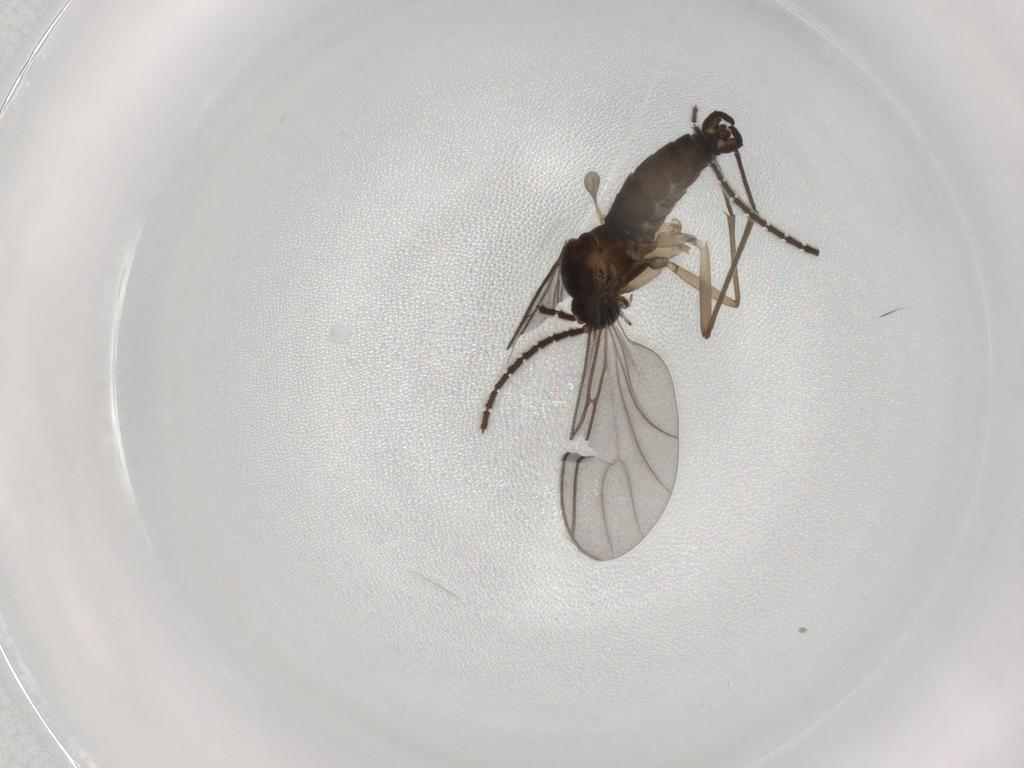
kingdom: Animalia
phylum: Arthropoda
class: Insecta
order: Diptera
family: Sciaridae
